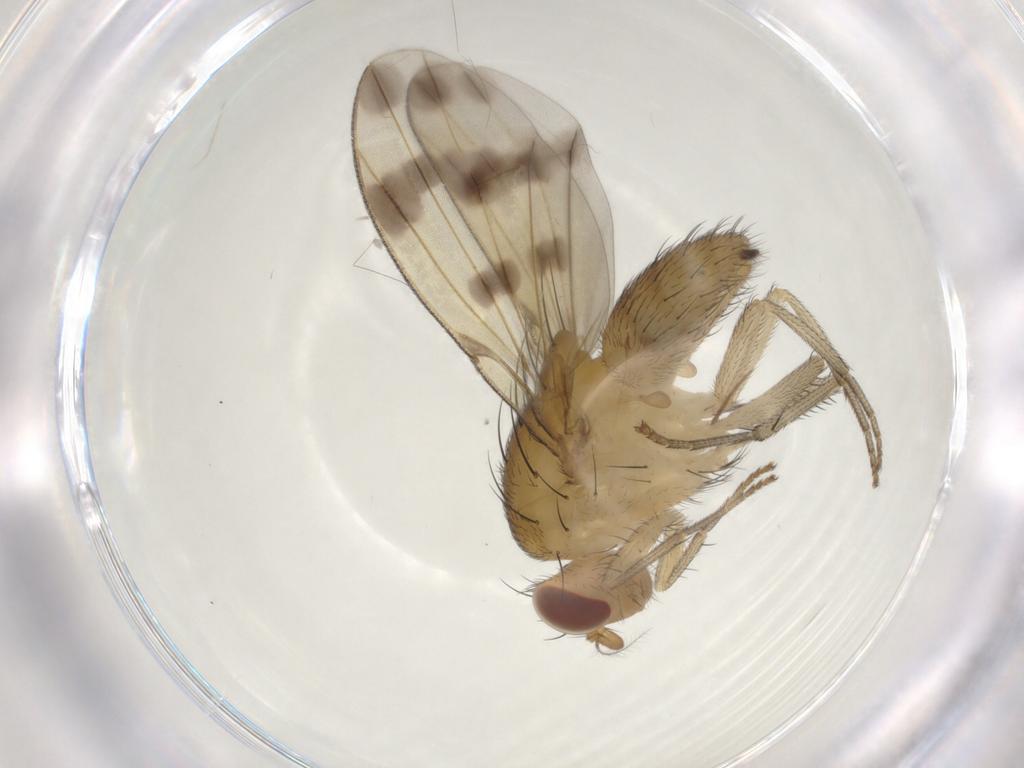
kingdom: Animalia
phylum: Arthropoda
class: Insecta
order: Diptera
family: Chironomidae
